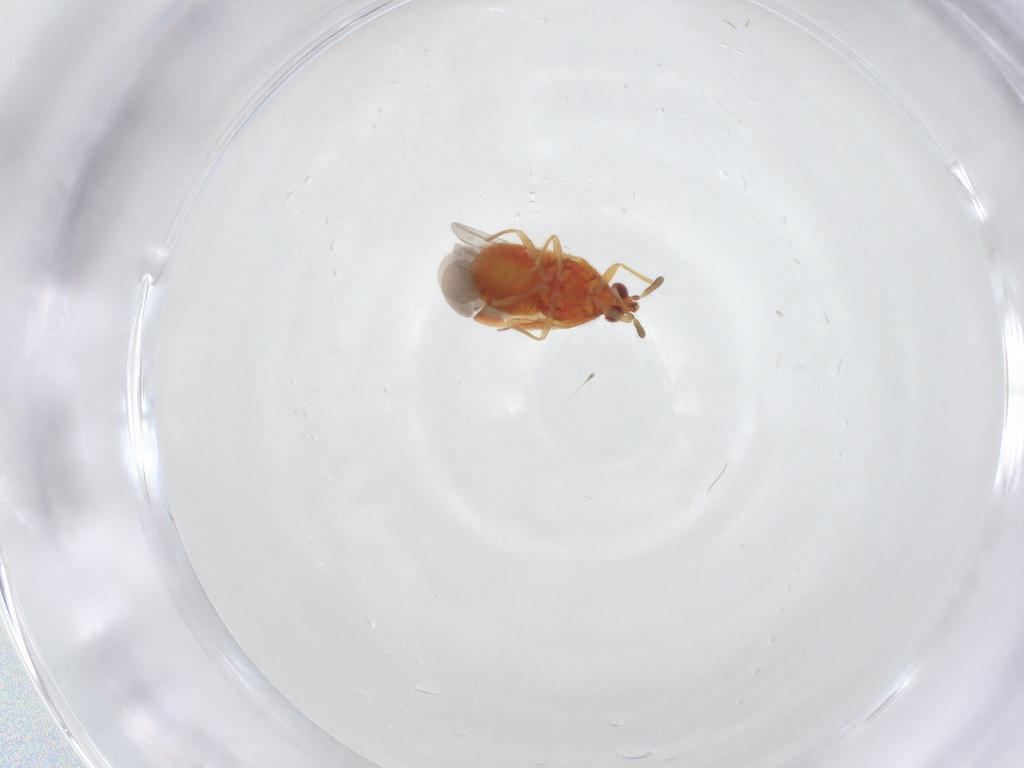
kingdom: Animalia
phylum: Arthropoda
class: Insecta
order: Hemiptera
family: Anthocoridae
